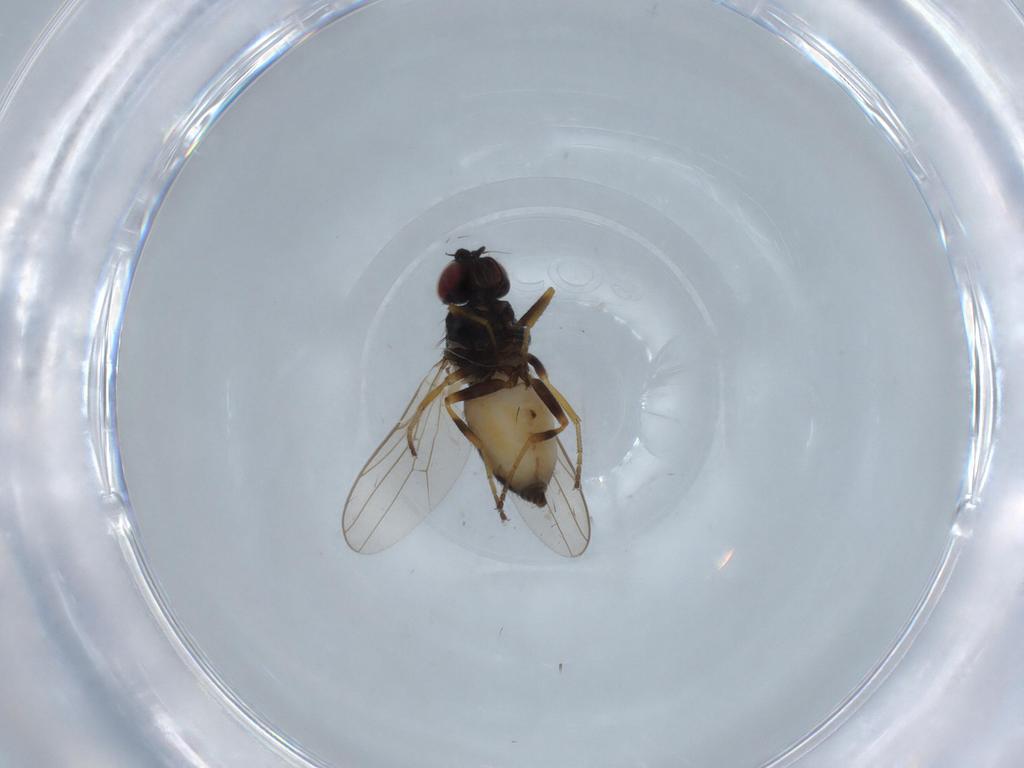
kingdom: Animalia
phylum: Arthropoda
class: Insecta
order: Diptera
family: Chloropidae
